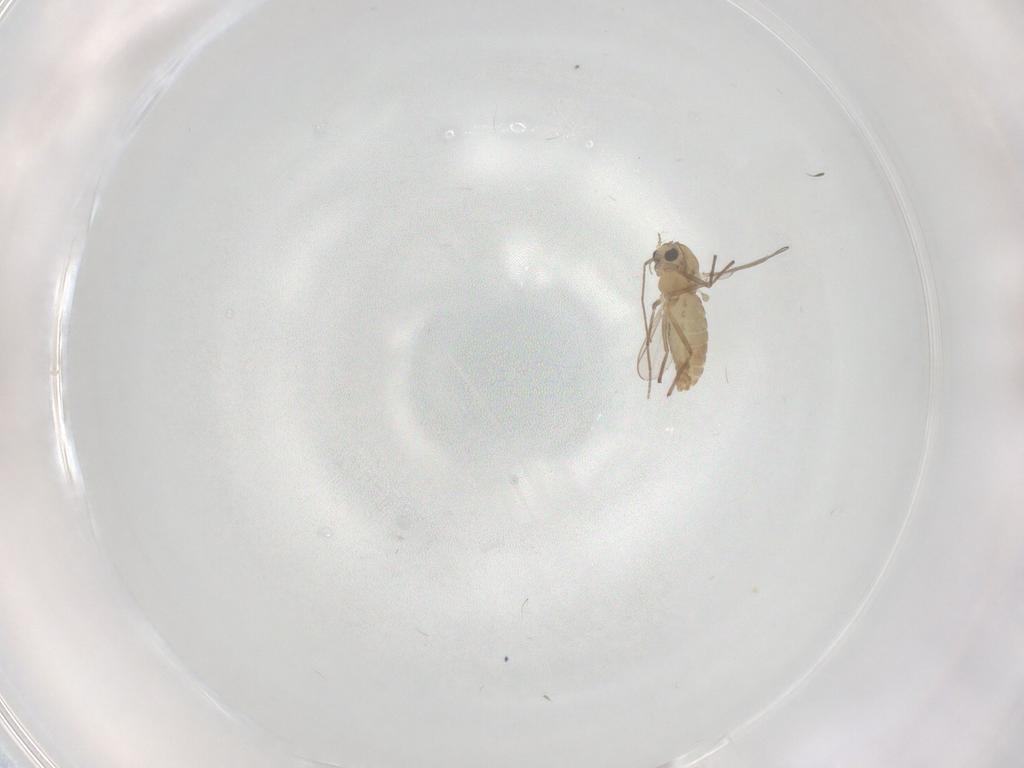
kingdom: Animalia
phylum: Arthropoda
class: Insecta
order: Diptera
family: Chironomidae
